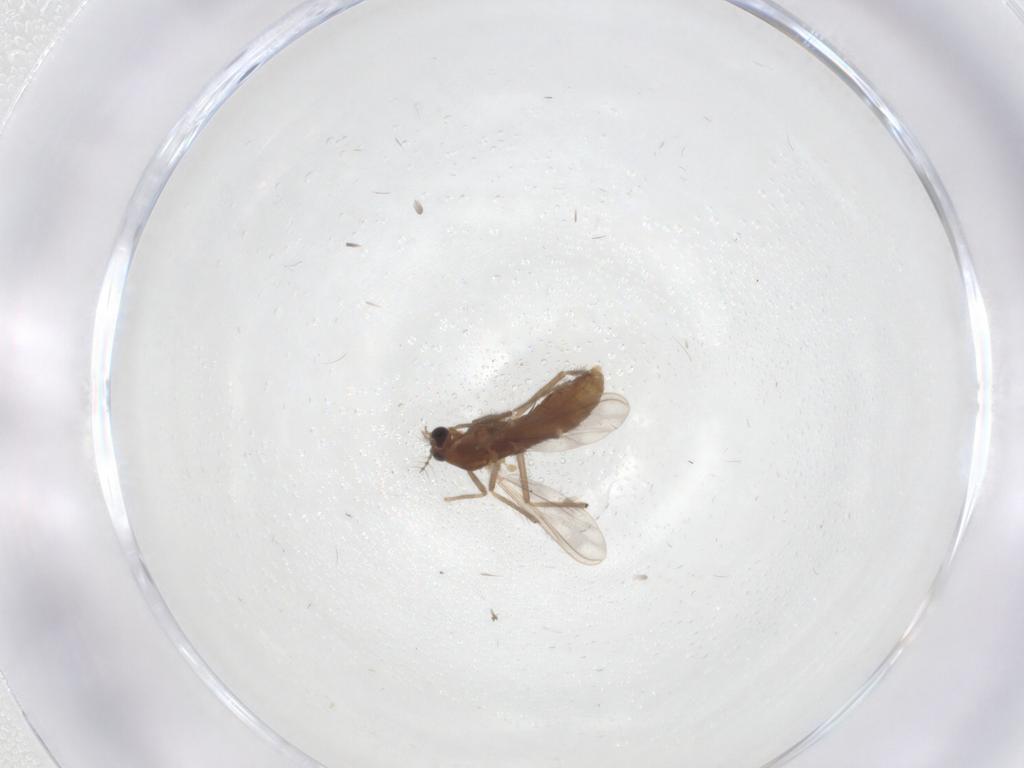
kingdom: Animalia
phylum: Arthropoda
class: Insecta
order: Diptera
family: Chironomidae
